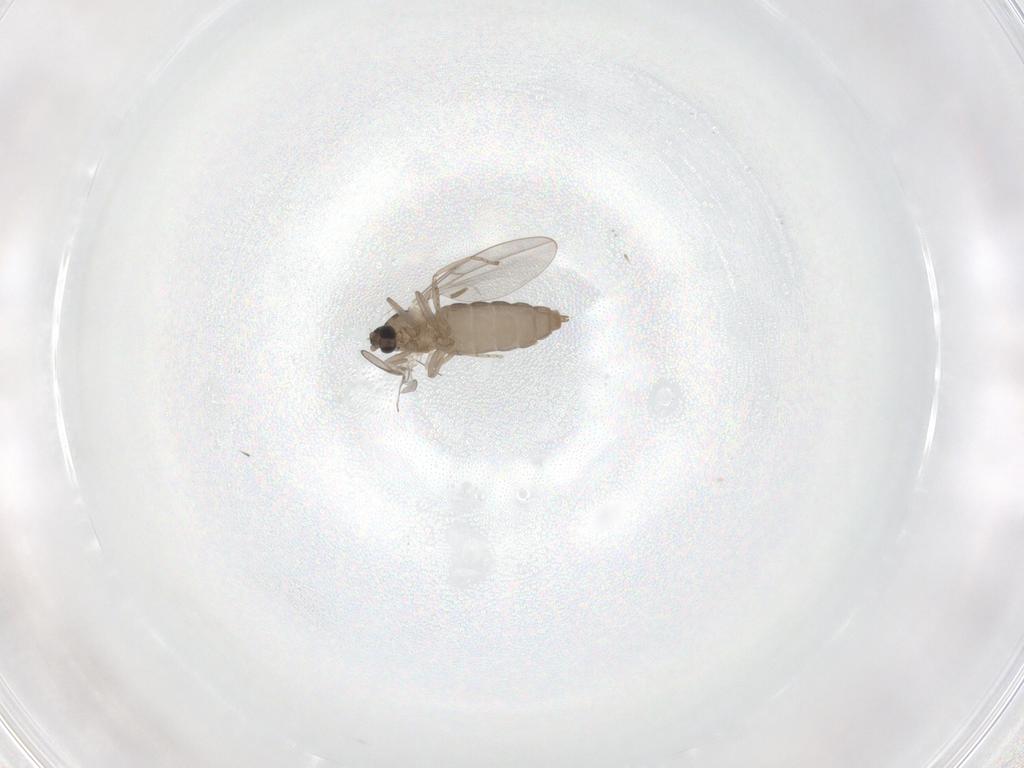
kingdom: Animalia
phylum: Arthropoda
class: Insecta
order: Diptera
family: Cecidomyiidae
